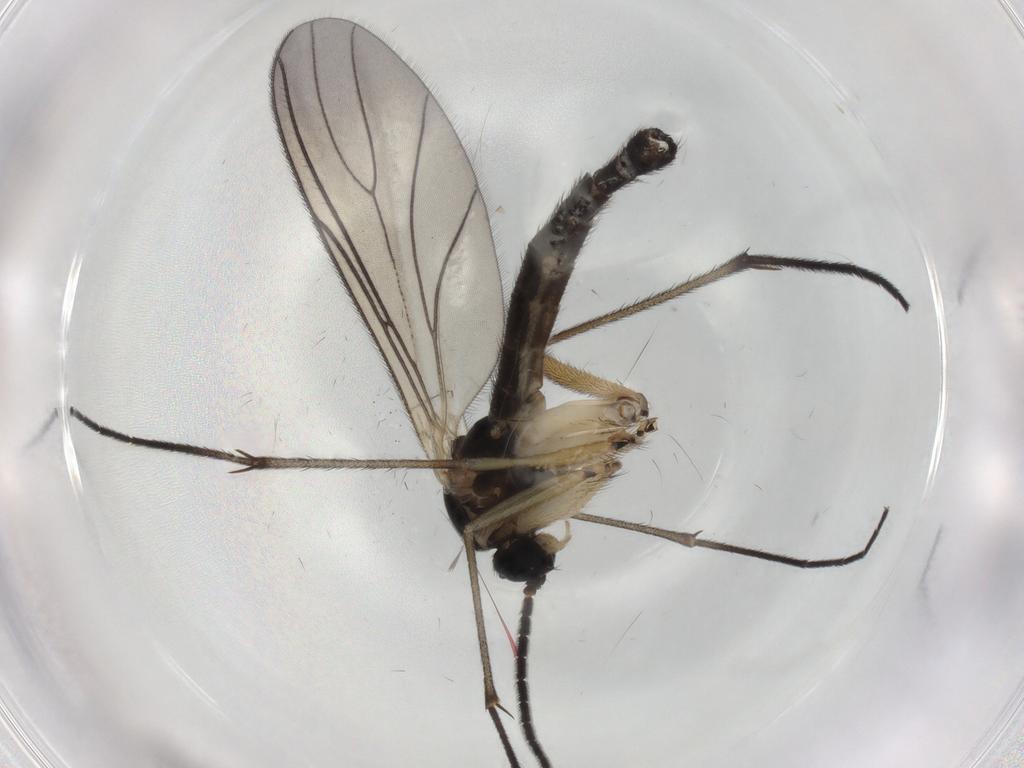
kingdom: Animalia
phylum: Arthropoda
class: Insecta
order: Diptera
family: Sciaridae
